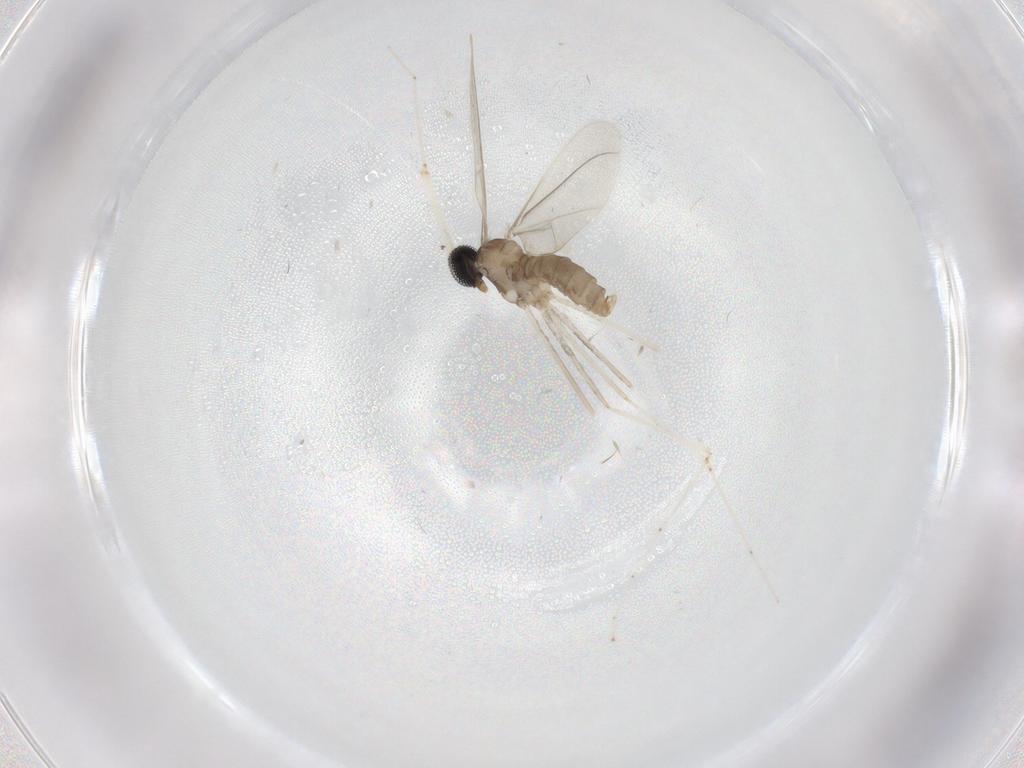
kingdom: Animalia
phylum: Arthropoda
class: Insecta
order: Diptera
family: Cecidomyiidae
